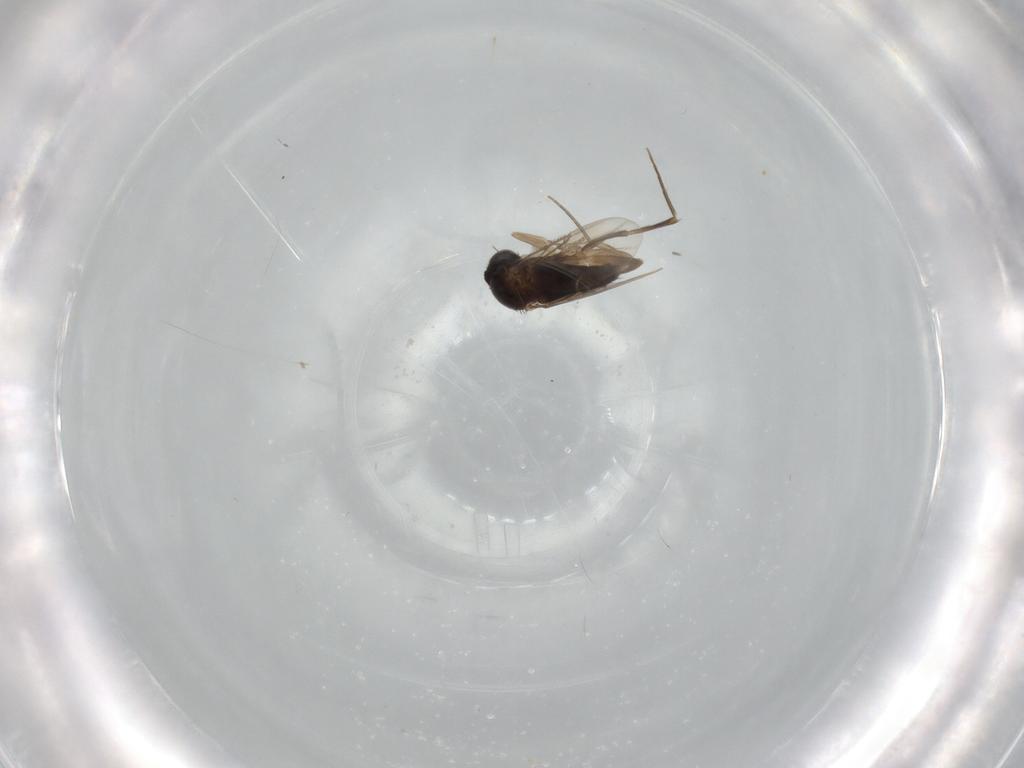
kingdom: Animalia
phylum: Arthropoda
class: Insecta
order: Diptera
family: Phoridae
